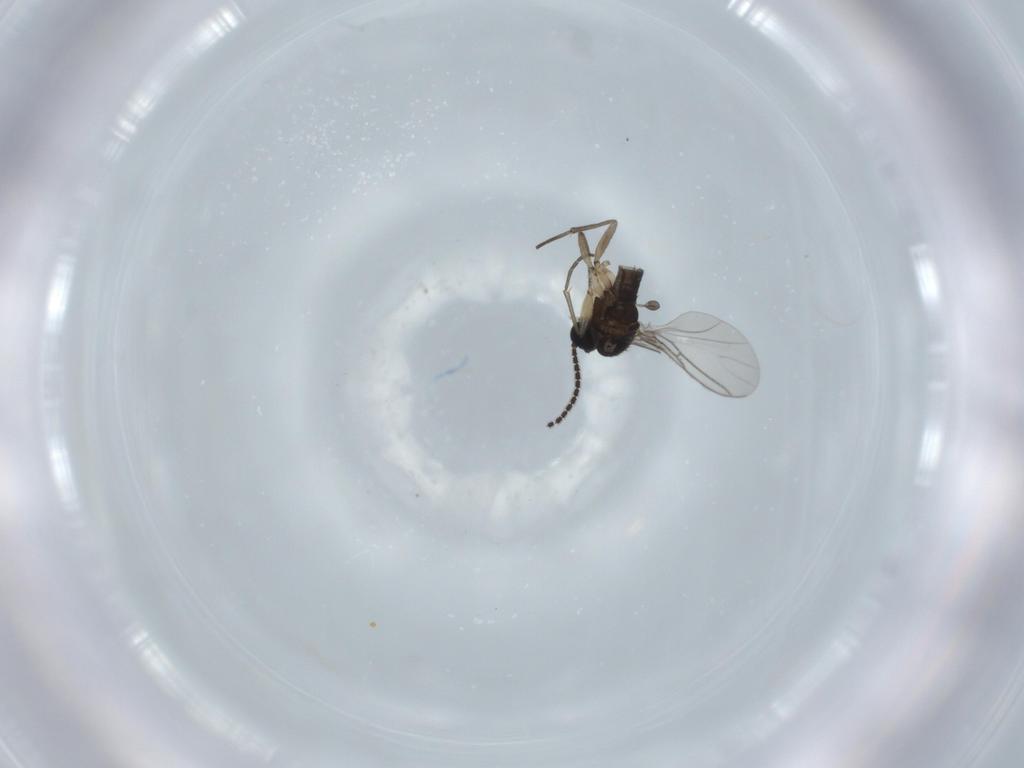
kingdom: Animalia
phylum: Arthropoda
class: Insecta
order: Diptera
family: Sciaridae
